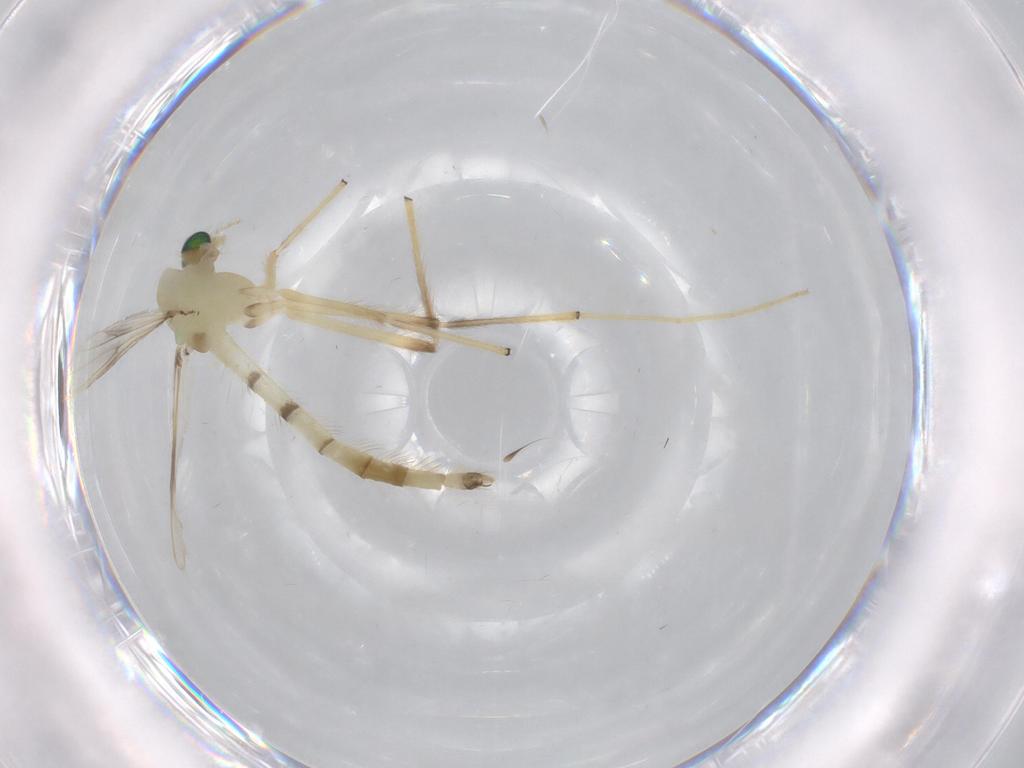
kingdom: Animalia
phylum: Arthropoda
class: Insecta
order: Diptera
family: Chironomidae
